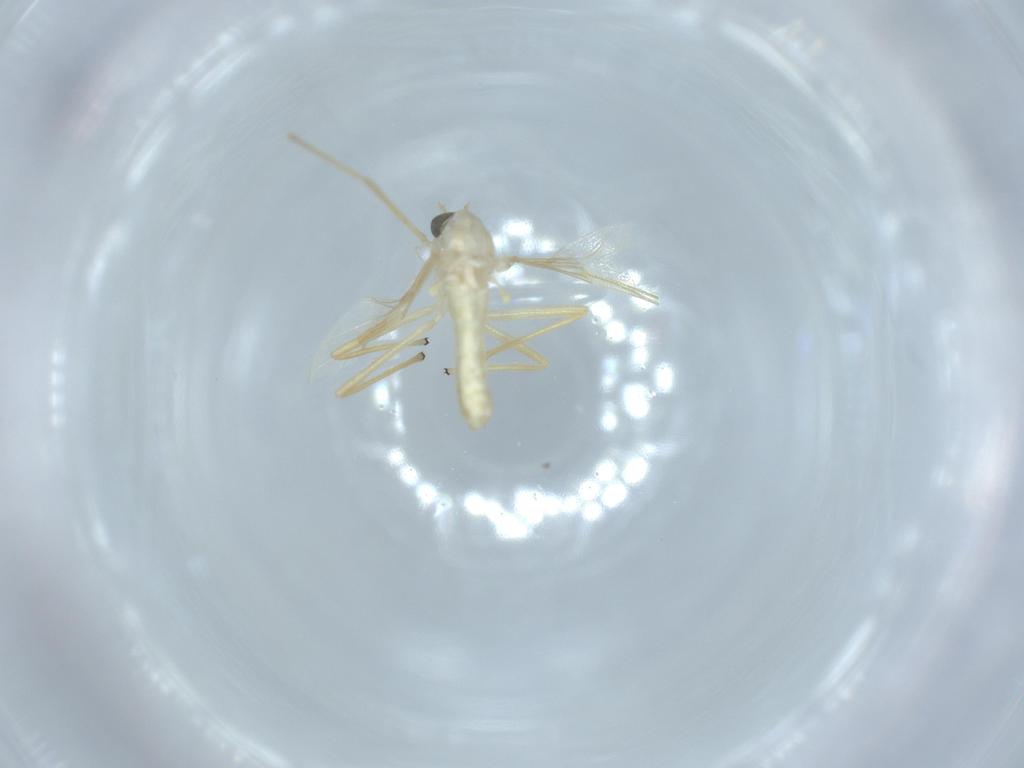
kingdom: Animalia
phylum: Arthropoda
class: Insecta
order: Diptera
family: Chironomidae
